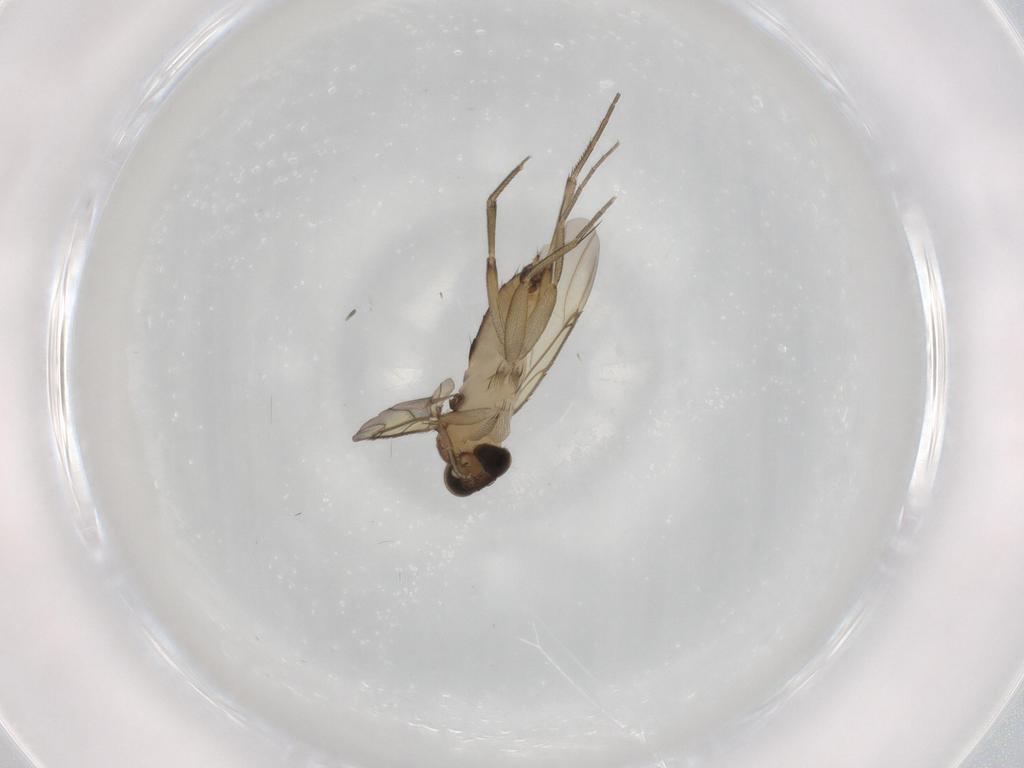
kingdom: Animalia
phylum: Arthropoda
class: Insecta
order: Diptera
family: Phoridae
